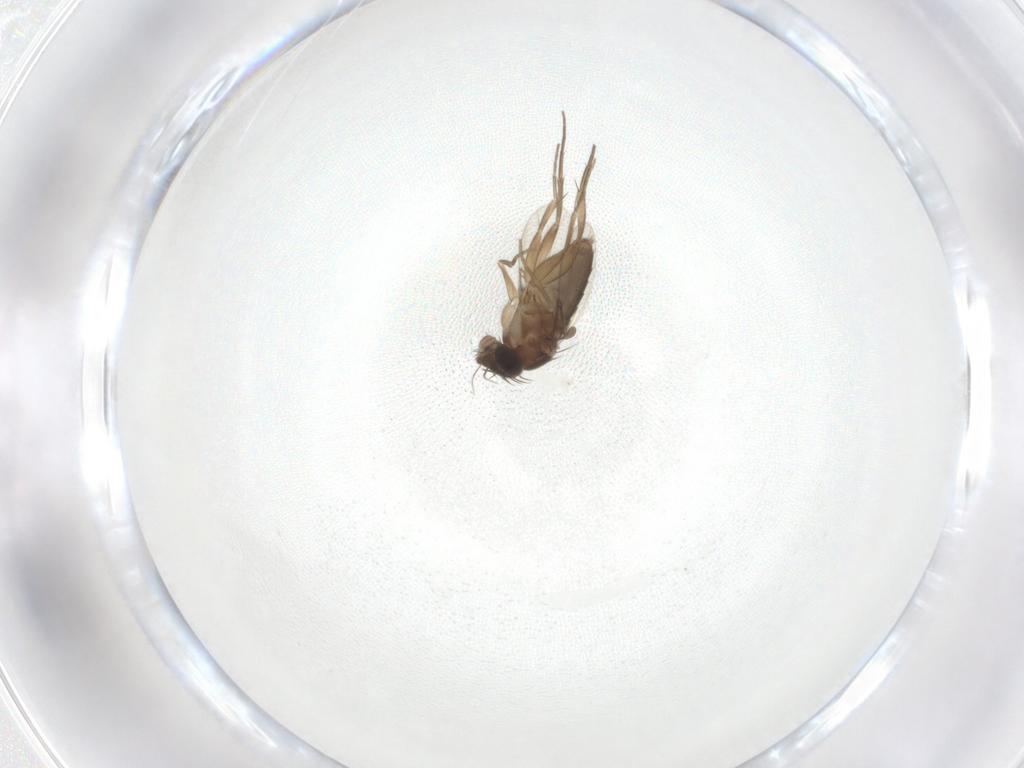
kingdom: Animalia
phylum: Arthropoda
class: Insecta
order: Diptera
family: Phoridae
